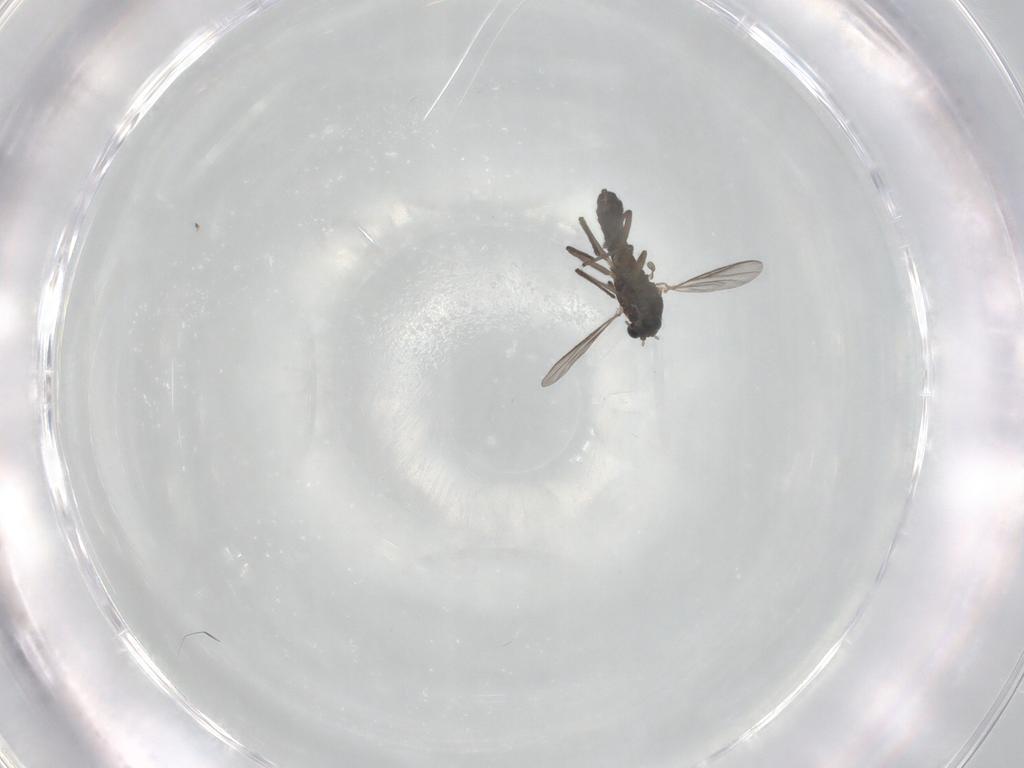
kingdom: Animalia
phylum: Arthropoda
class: Insecta
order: Diptera
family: Chironomidae
